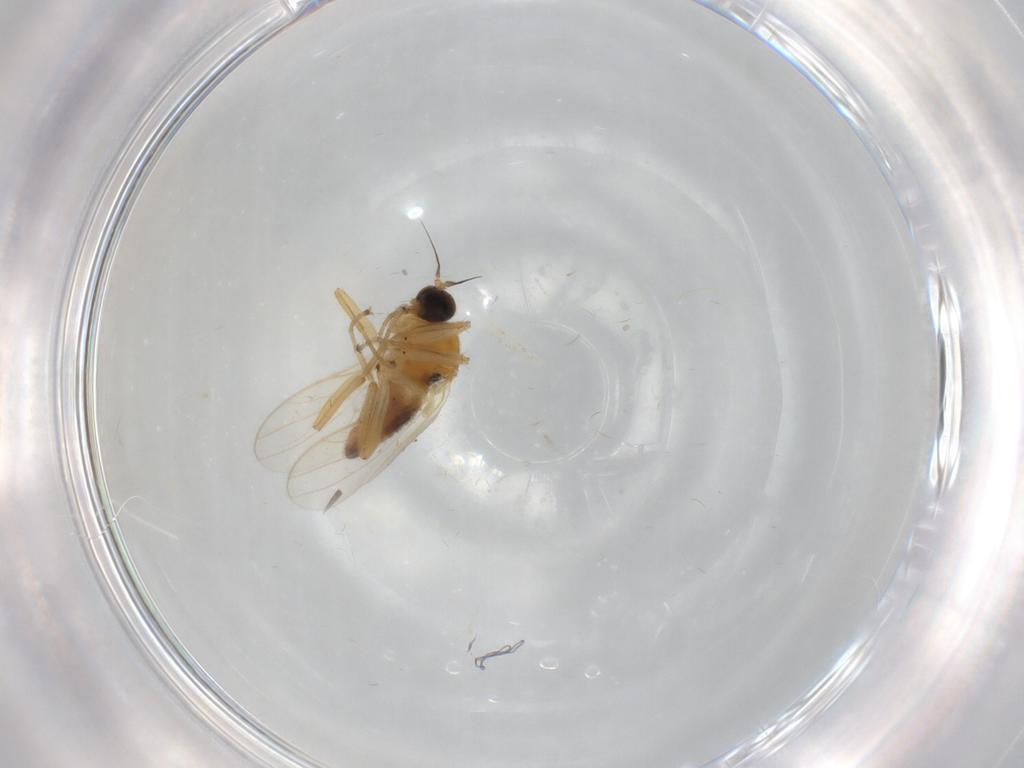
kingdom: Animalia
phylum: Arthropoda
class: Insecta
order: Diptera
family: Hybotidae
